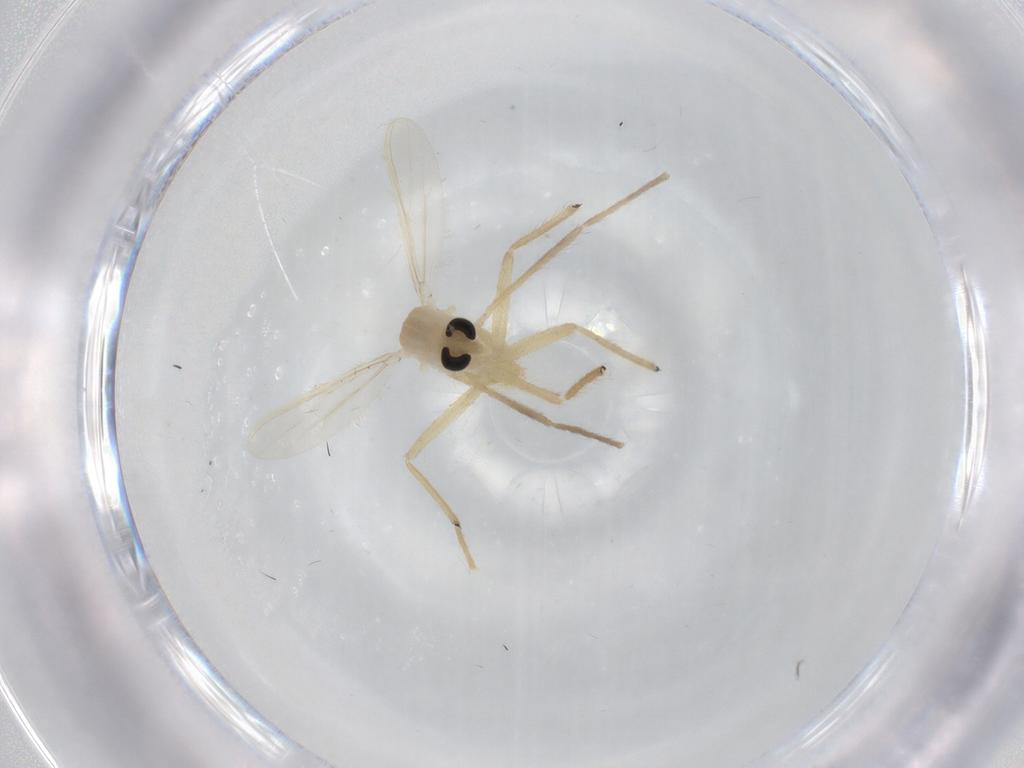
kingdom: Animalia
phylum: Arthropoda
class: Insecta
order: Diptera
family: Chironomidae
